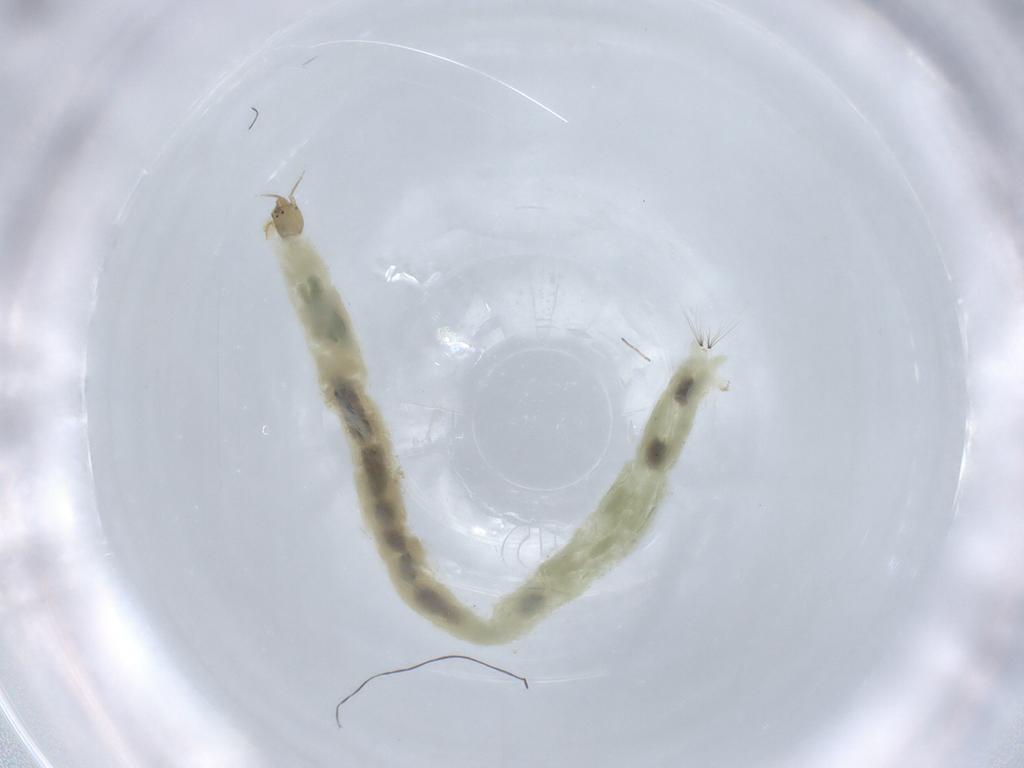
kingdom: Animalia
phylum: Arthropoda
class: Insecta
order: Diptera
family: Chironomidae
